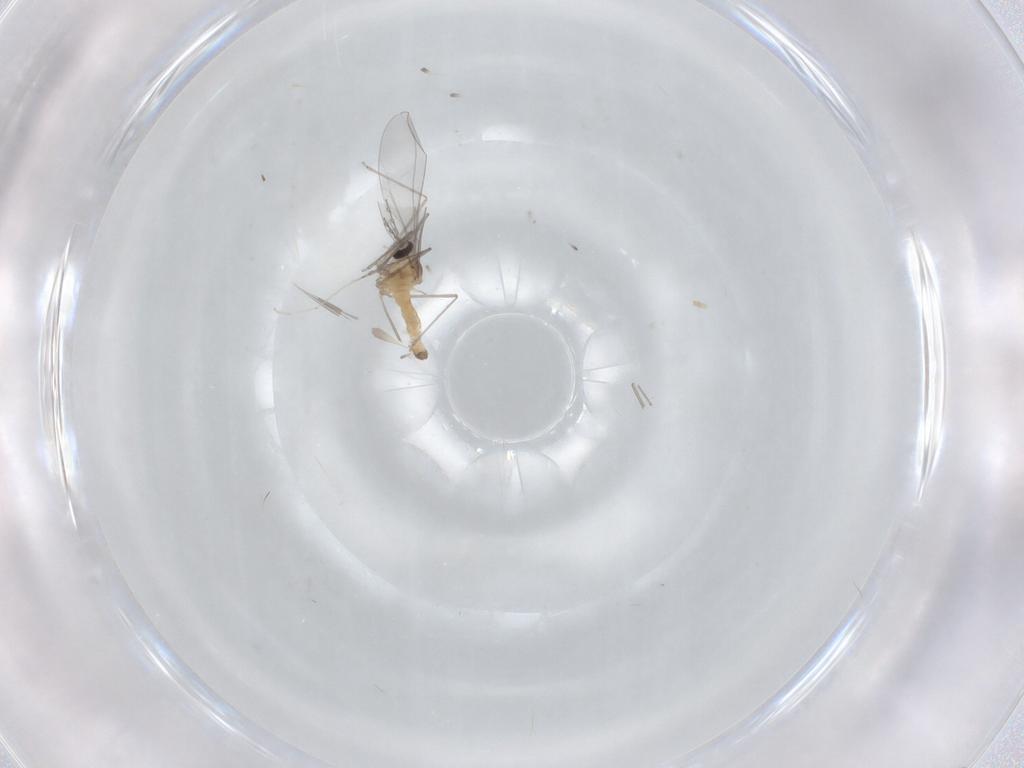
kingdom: Animalia
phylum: Arthropoda
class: Insecta
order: Diptera
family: Cecidomyiidae
